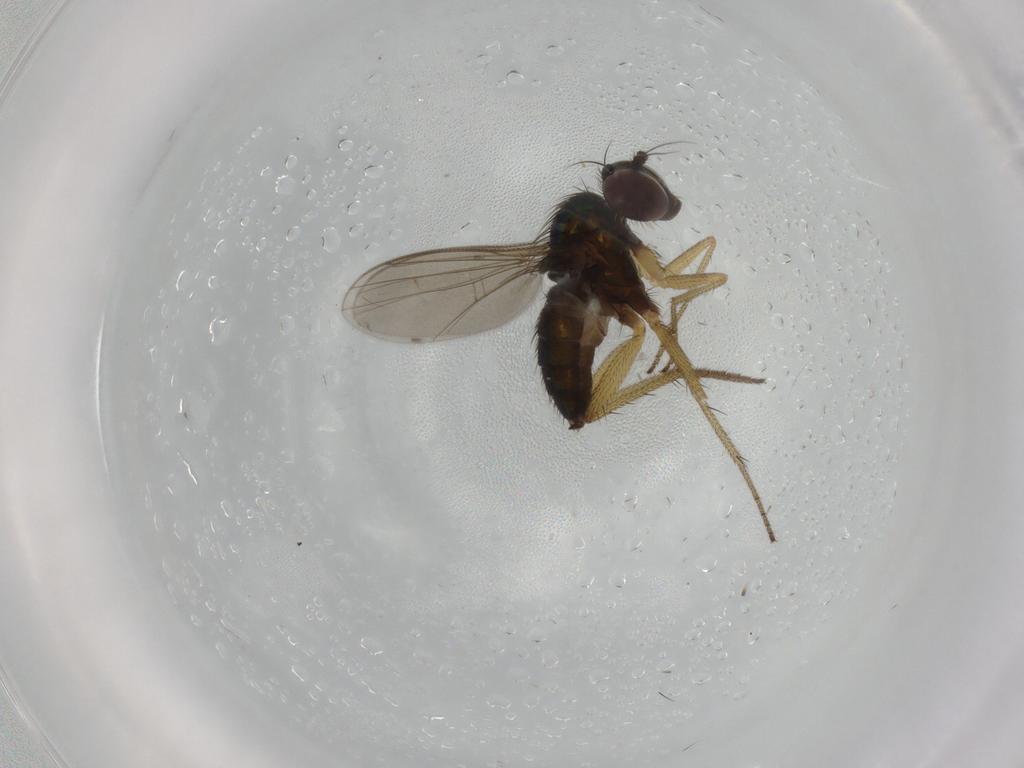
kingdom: Animalia
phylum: Arthropoda
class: Insecta
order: Diptera
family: Dolichopodidae
